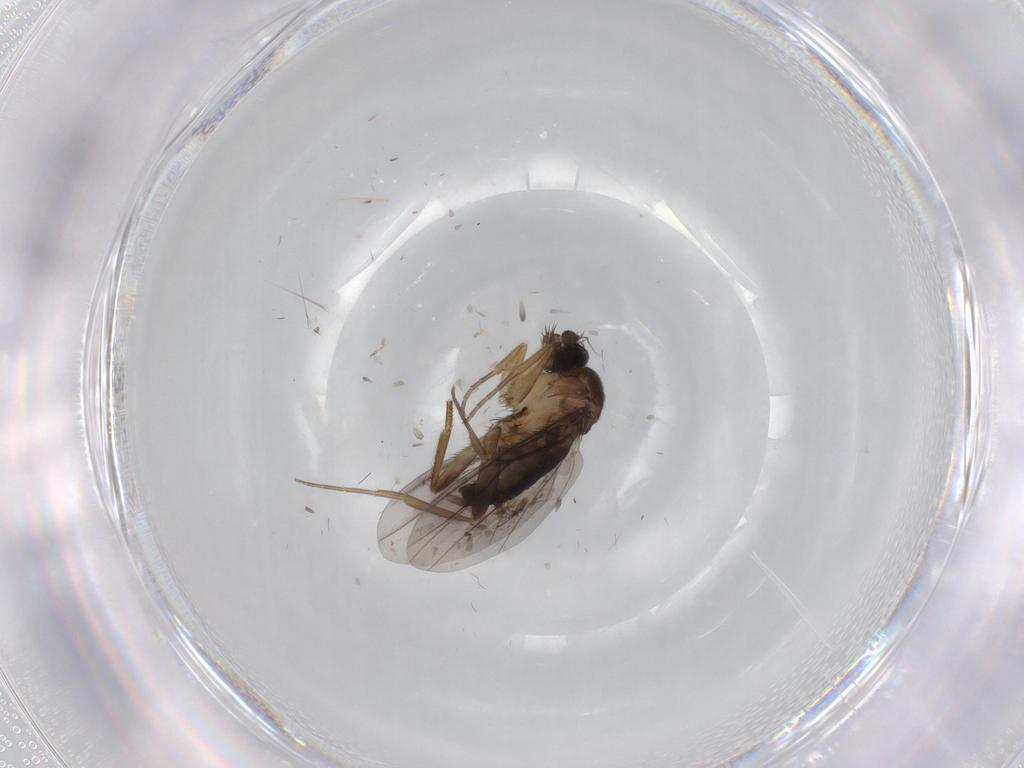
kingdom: Animalia
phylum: Arthropoda
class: Insecta
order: Diptera
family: Phoridae
